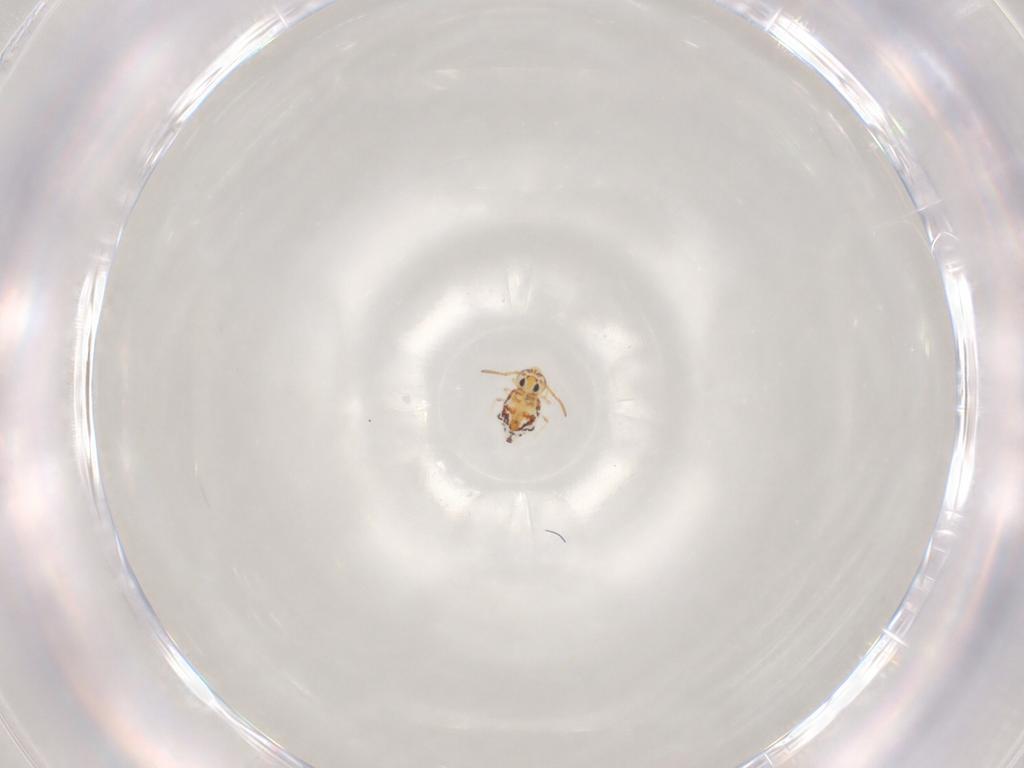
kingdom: Animalia
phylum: Arthropoda
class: Collembola
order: Symphypleona
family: Bourletiellidae
